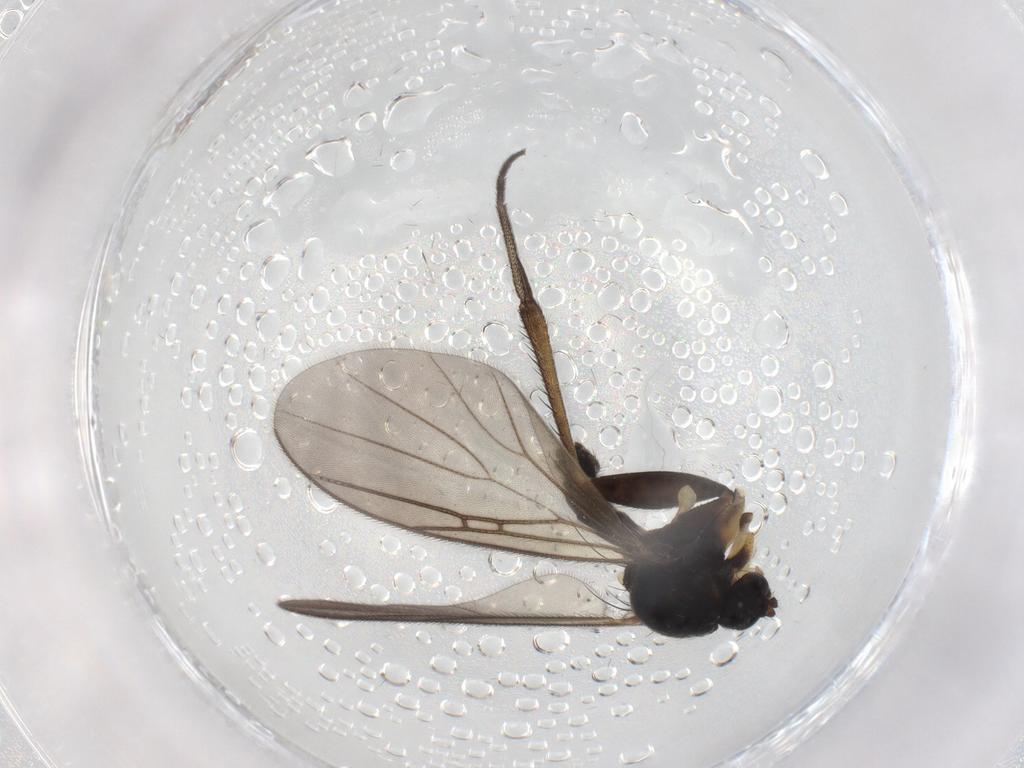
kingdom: Animalia
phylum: Arthropoda
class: Insecta
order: Diptera
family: Mycetophilidae
